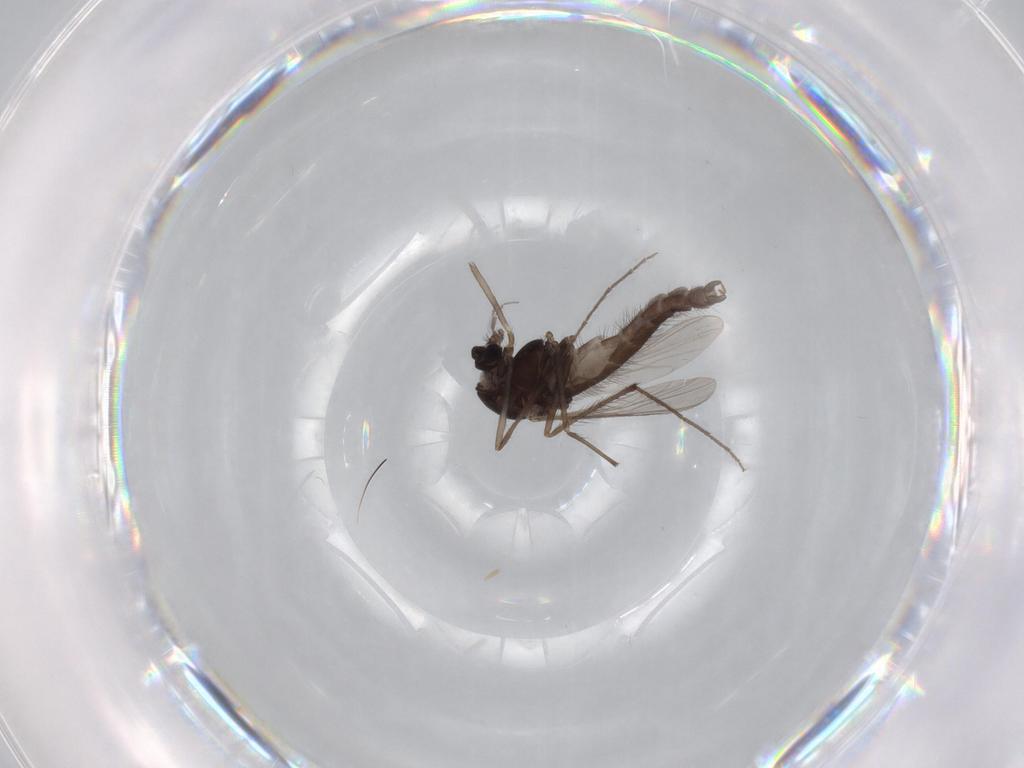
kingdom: Animalia
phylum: Arthropoda
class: Insecta
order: Diptera
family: Chironomidae
